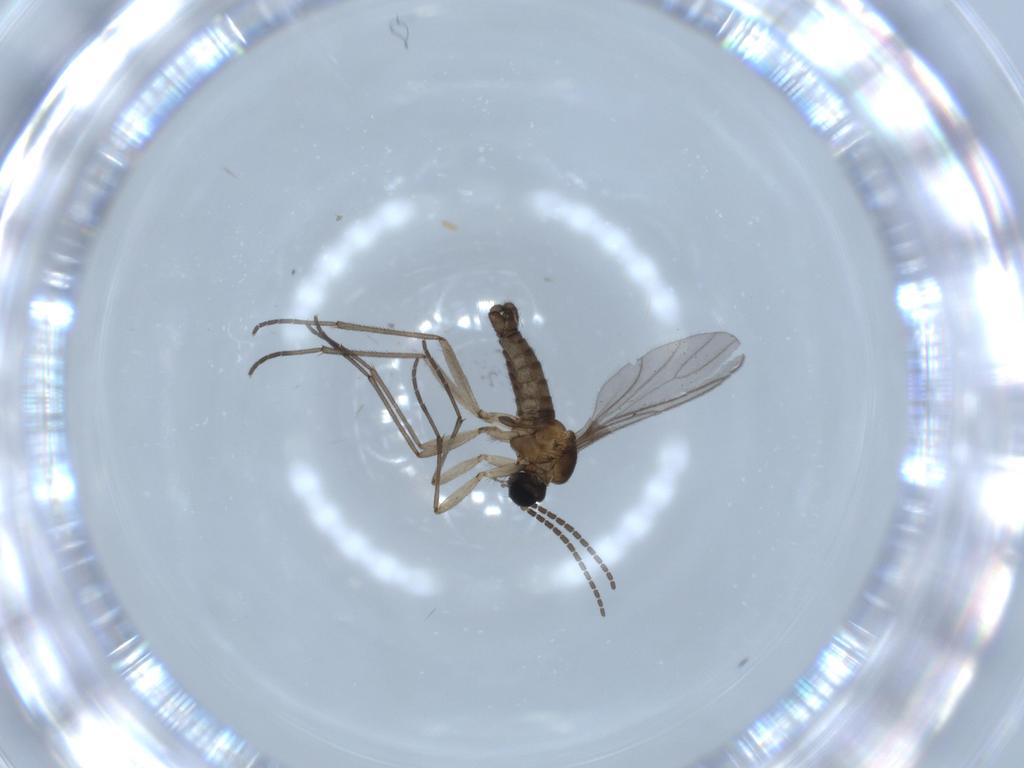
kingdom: Animalia
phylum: Arthropoda
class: Insecta
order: Diptera
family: Sciaridae
